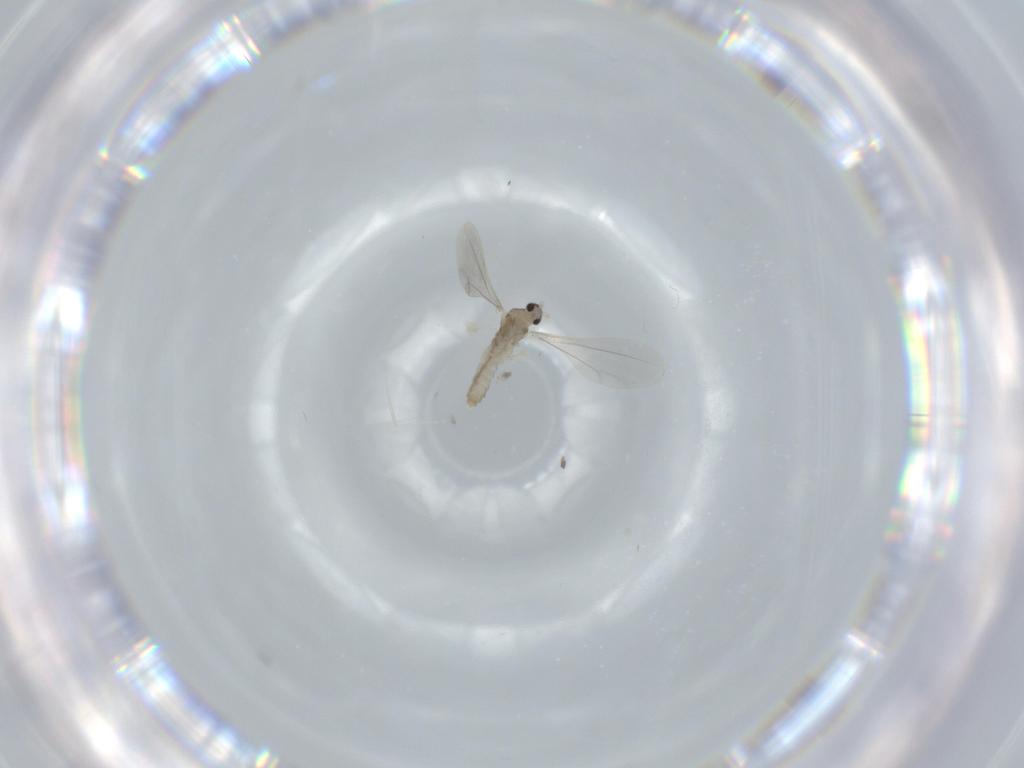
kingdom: Animalia
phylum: Arthropoda
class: Insecta
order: Diptera
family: Cecidomyiidae
